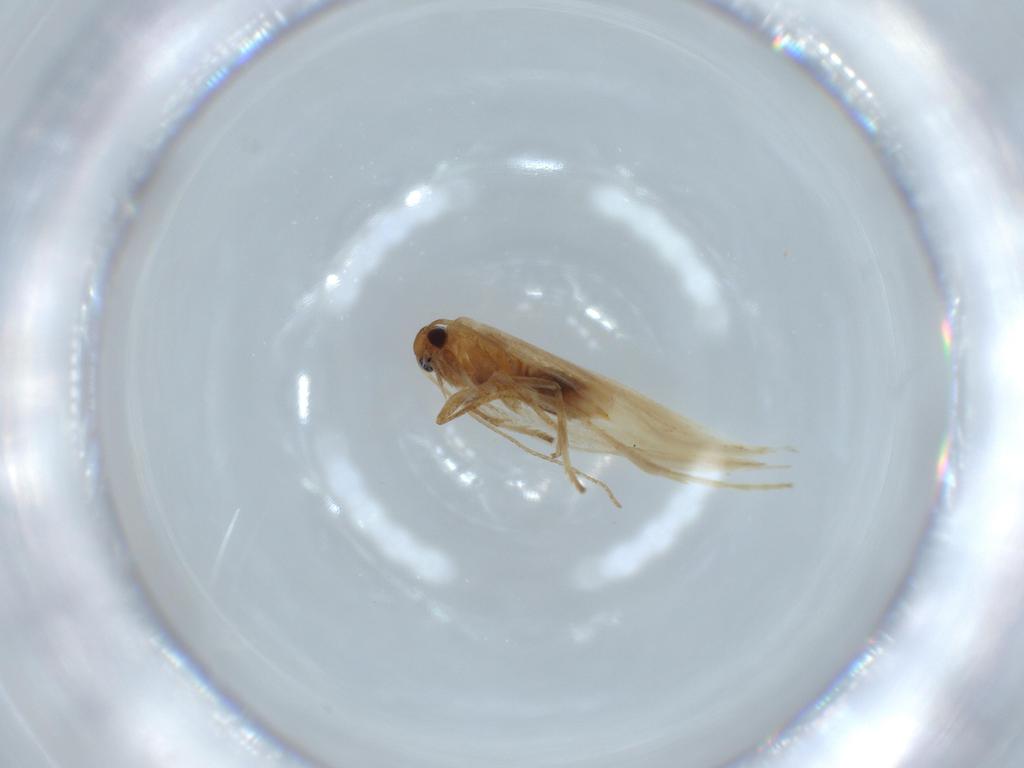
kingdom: Animalia
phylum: Arthropoda
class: Insecta
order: Lepidoptera
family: Gelechiidae
